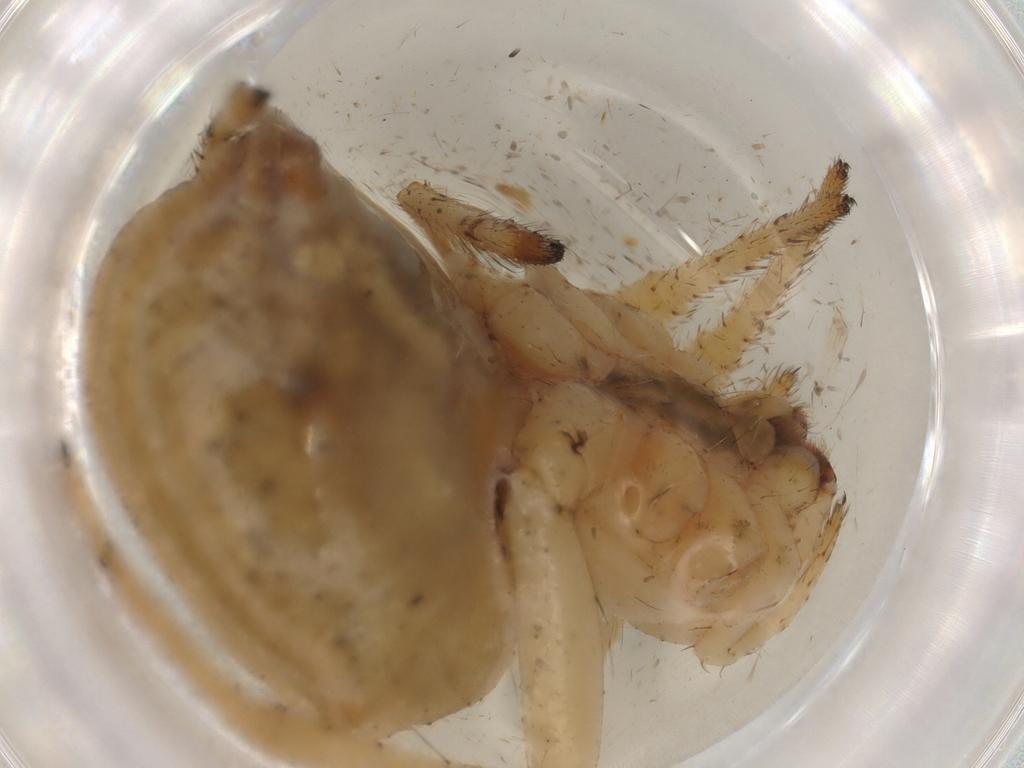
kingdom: Animalia
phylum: Arthropoda
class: Arachnida
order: Araneae
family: Araneidae
